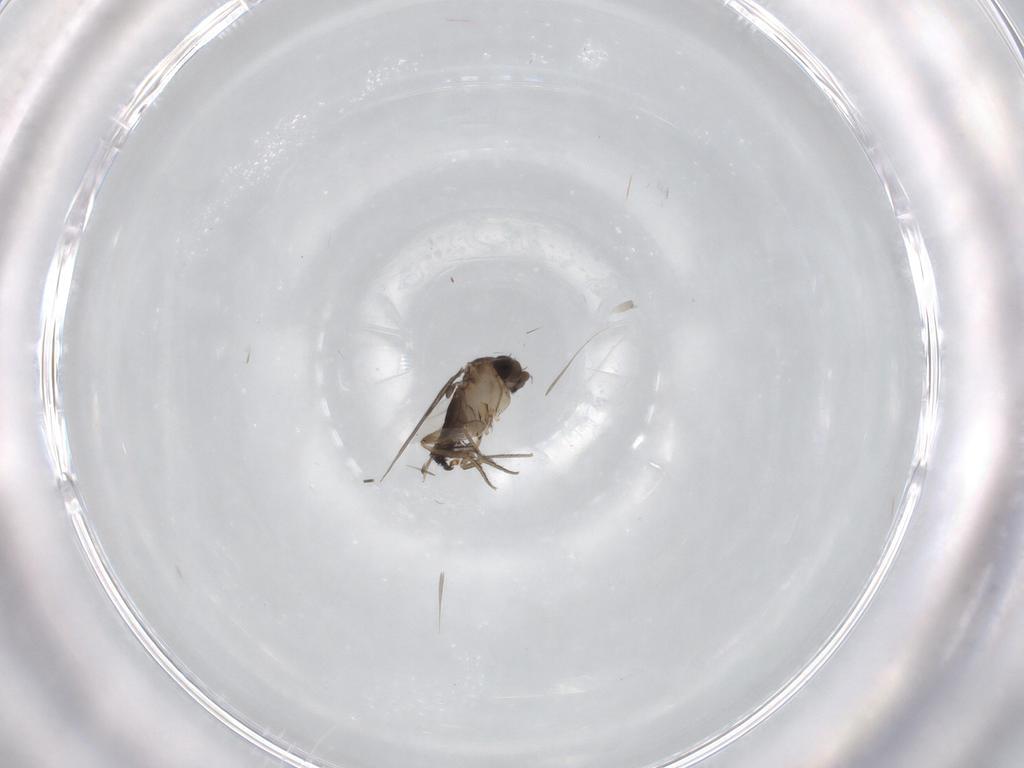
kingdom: Animalia
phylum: Arthropoda
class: Insecta
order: Diptera
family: Phoridae
